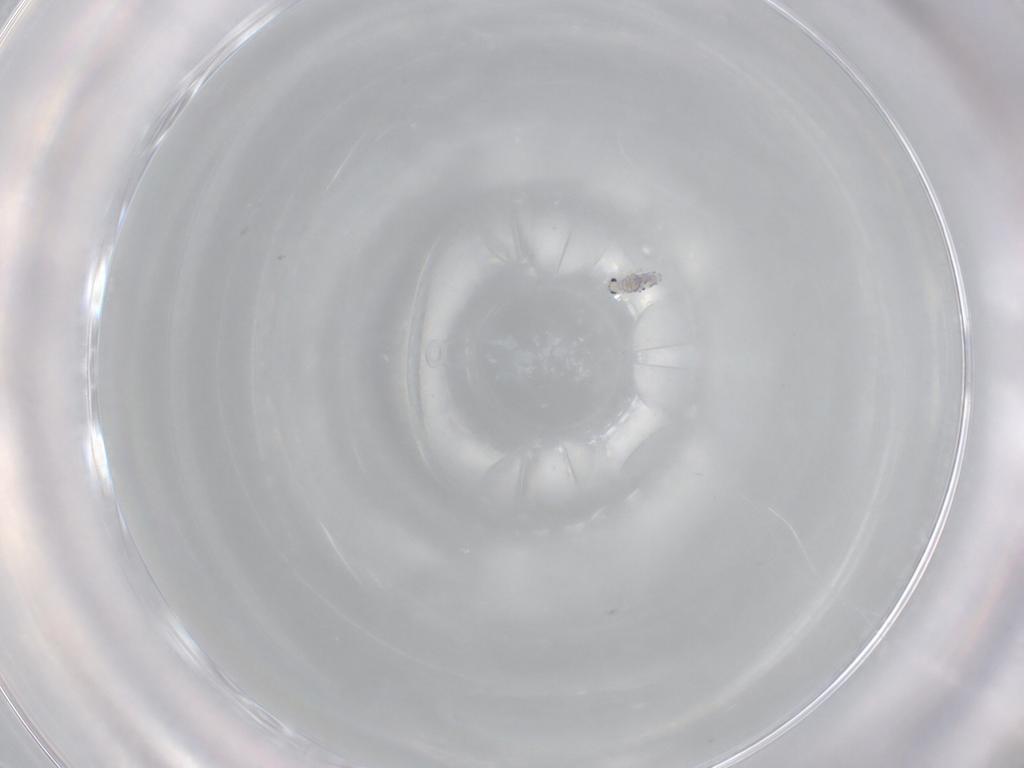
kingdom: Animalia
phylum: Arthropoda
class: Collembola
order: Entomobryomorpha
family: Entomobryidae
